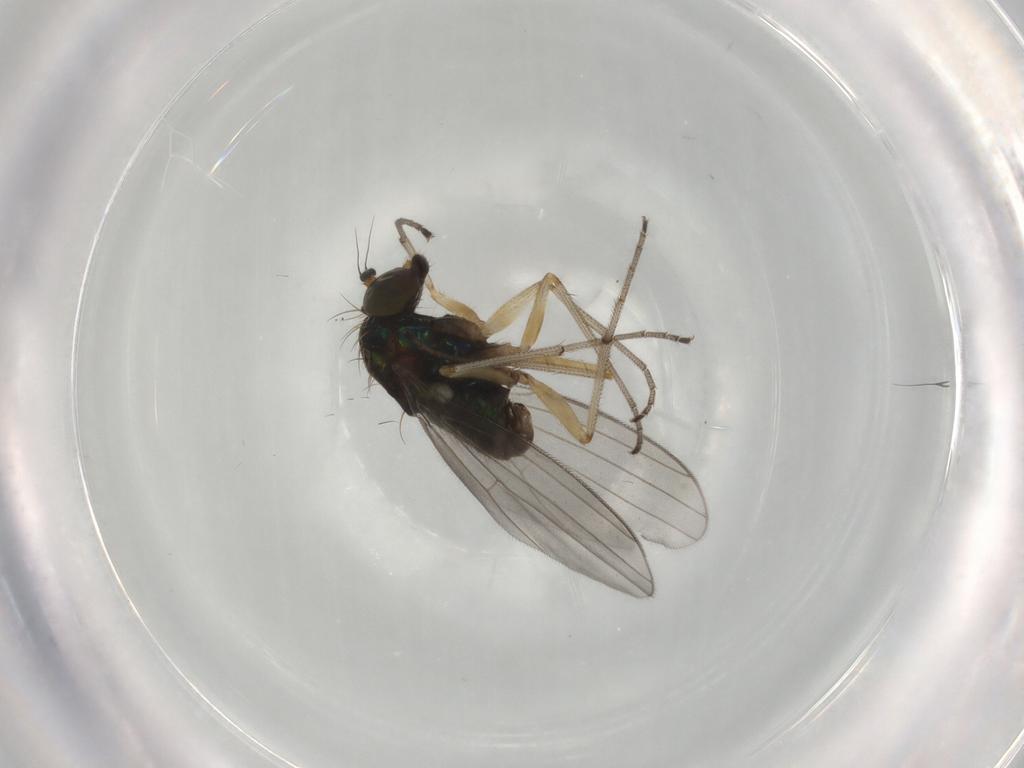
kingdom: Animalia
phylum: Arthropoda
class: Insecta
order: Diptera
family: Dolichopodidae
